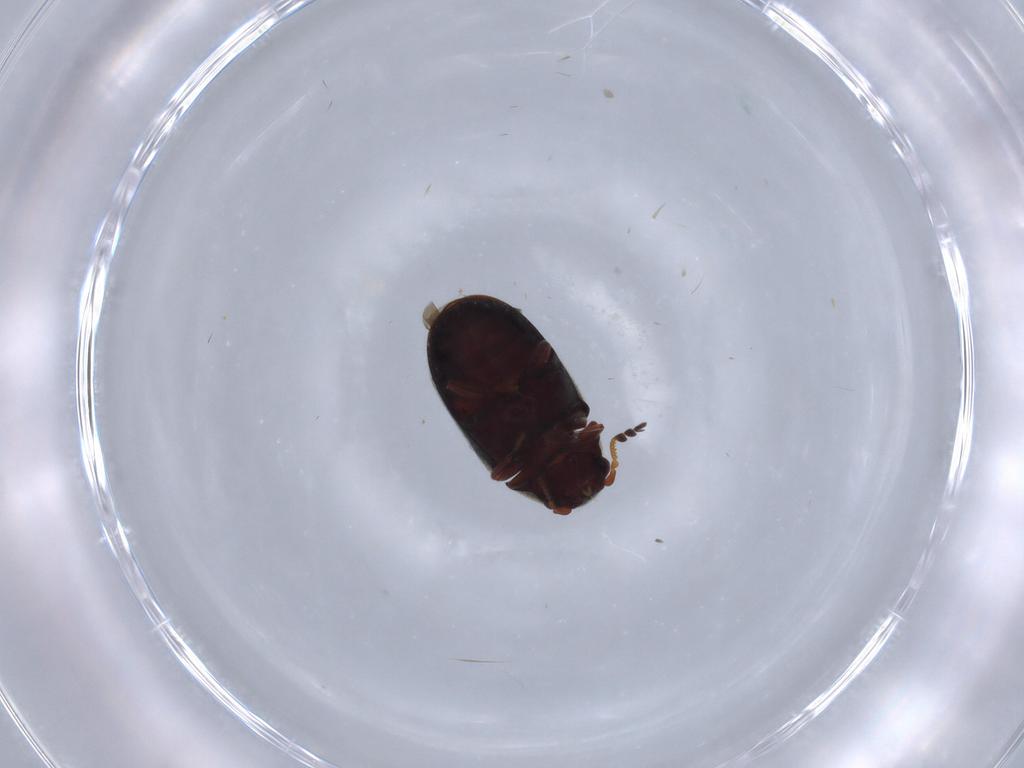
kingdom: Animalia
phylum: Arthropoda
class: Insecta
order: Coleoptera
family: Ptinidae
